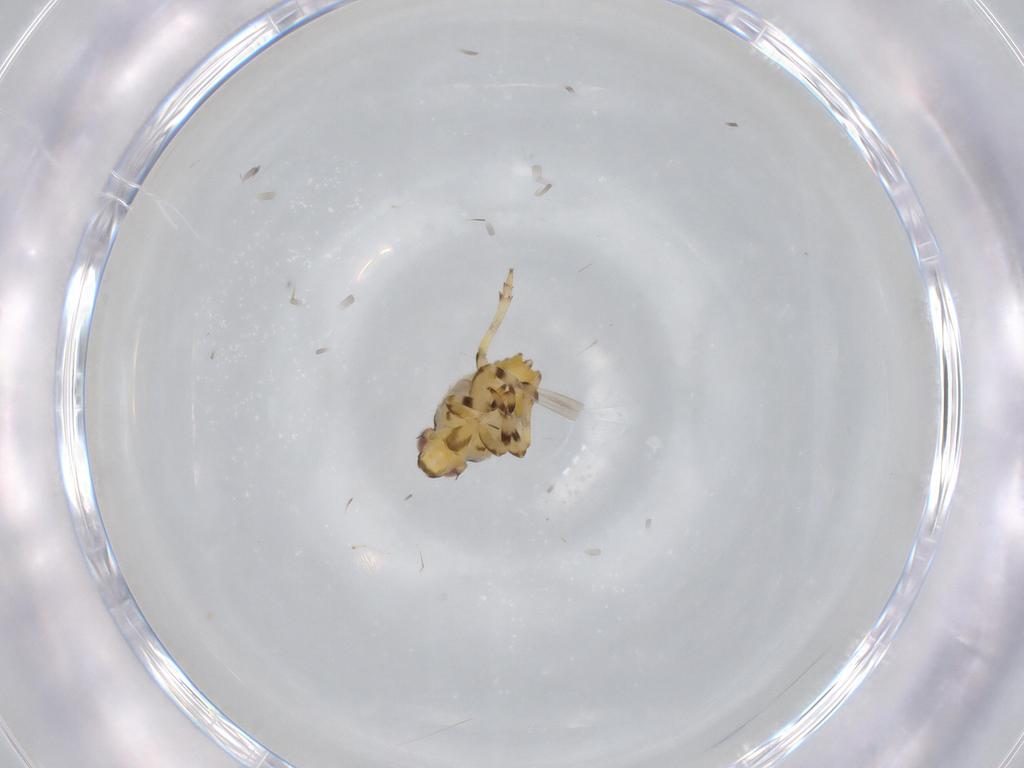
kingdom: Animalia
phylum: Arthropoda
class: Insecta
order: Hemiptera
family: Issidae
